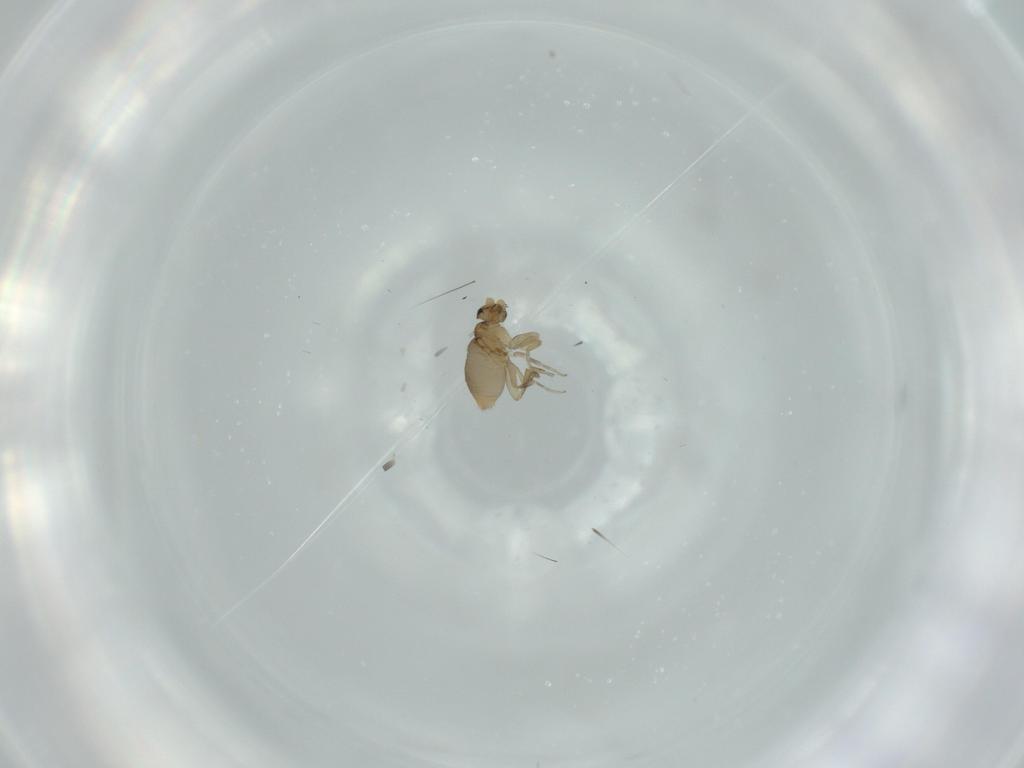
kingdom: Animalia
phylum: Arthropoda
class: Insecta
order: Diptera
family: Phoridae
